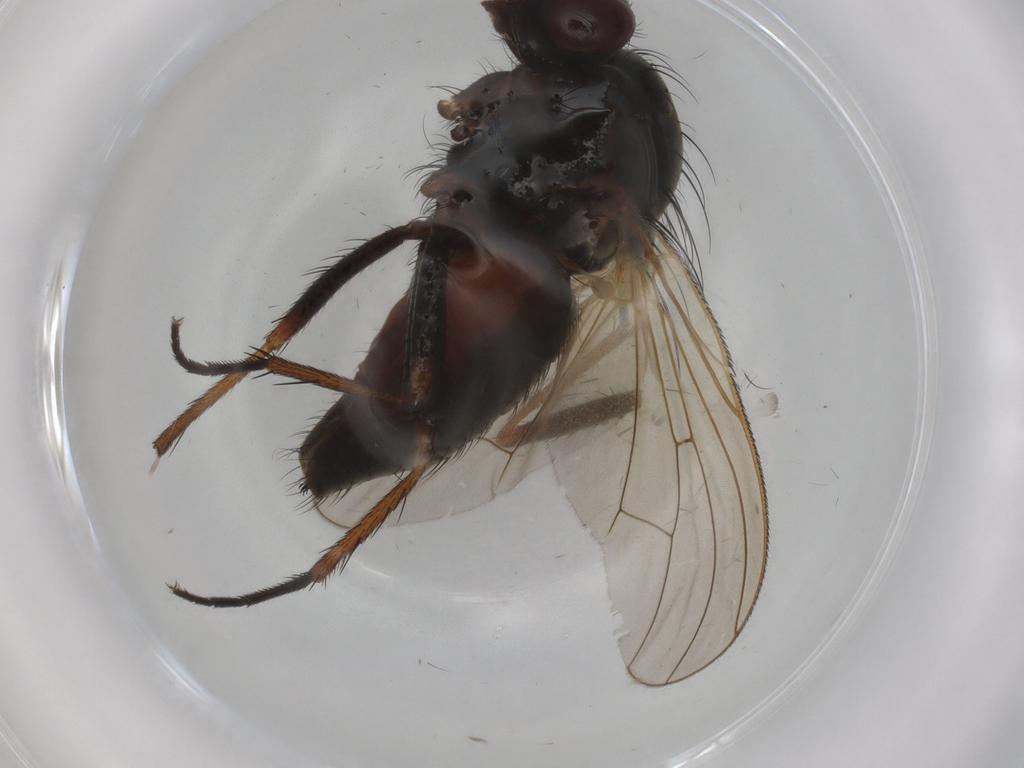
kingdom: Animalia
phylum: Arthropoda
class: Insecta
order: Diptera
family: Anthomyiidae
